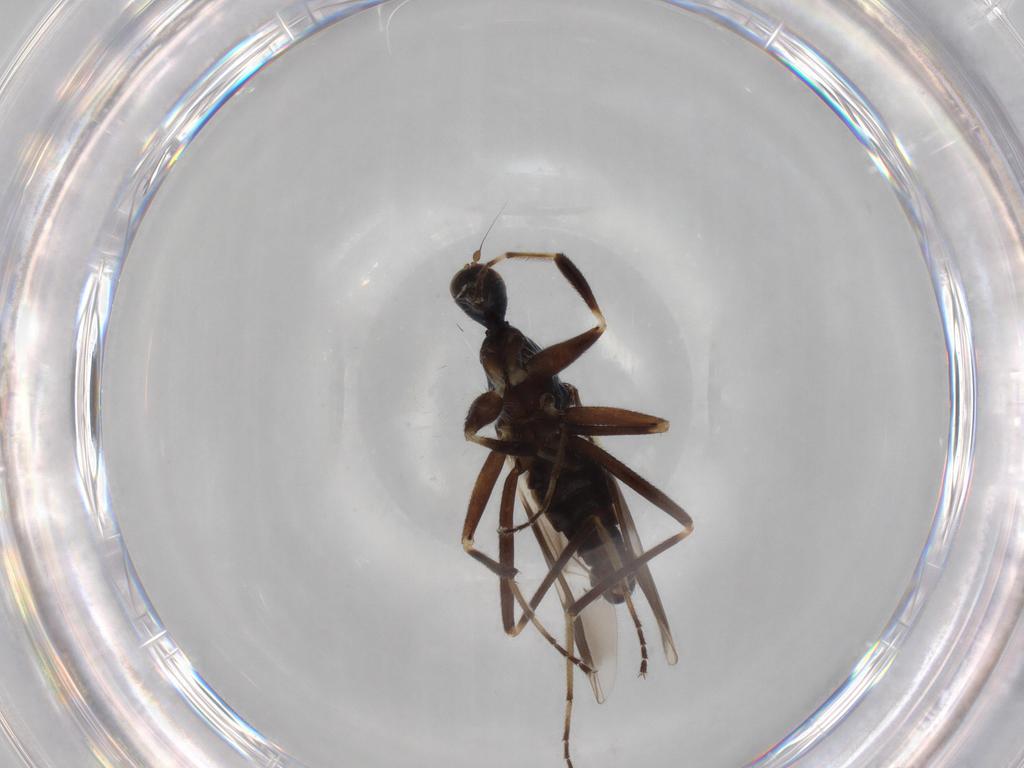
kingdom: Animalia
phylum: Arthropoda
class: Insecta
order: Diptera
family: Hybotidae
